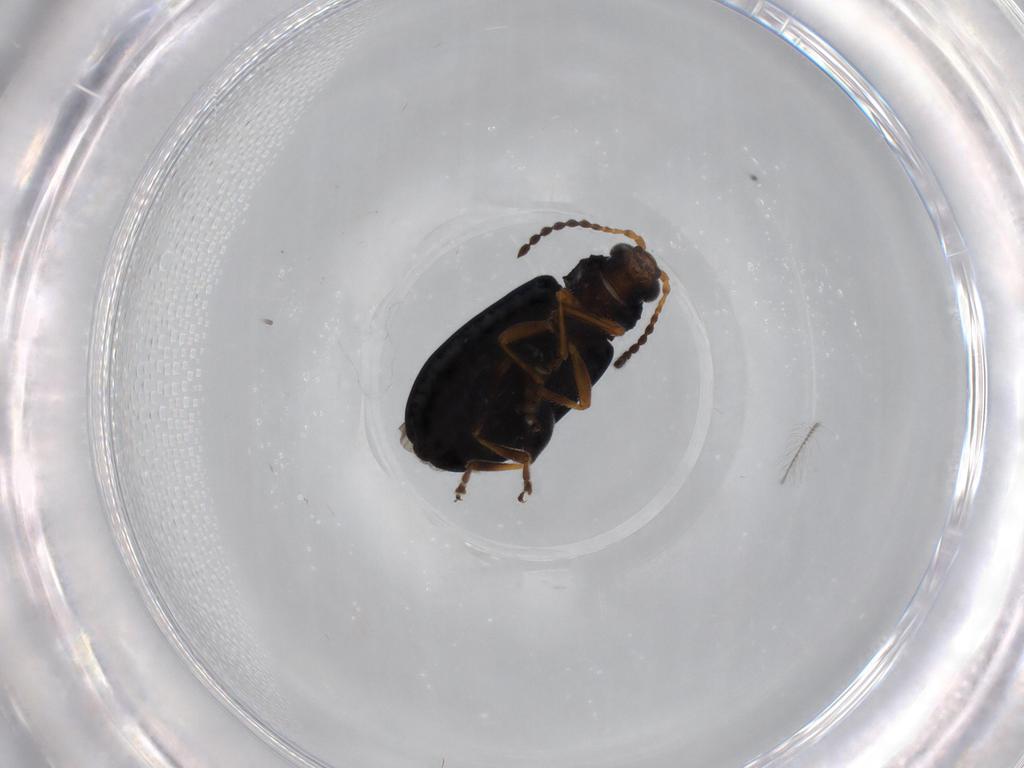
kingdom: Animalia
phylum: Arthropoda
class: Insecta
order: Coleoptera
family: Chrysomelidae
